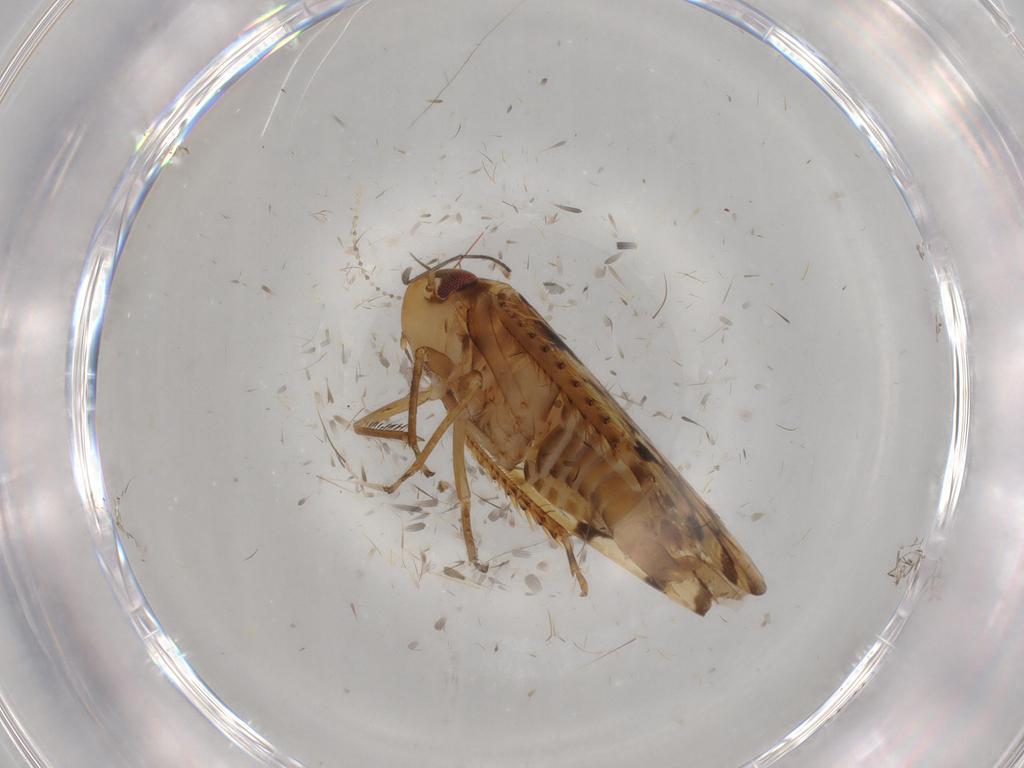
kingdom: Animalia
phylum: Arthropoda
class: Insecta
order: Hemiptera
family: Cicadellidae
